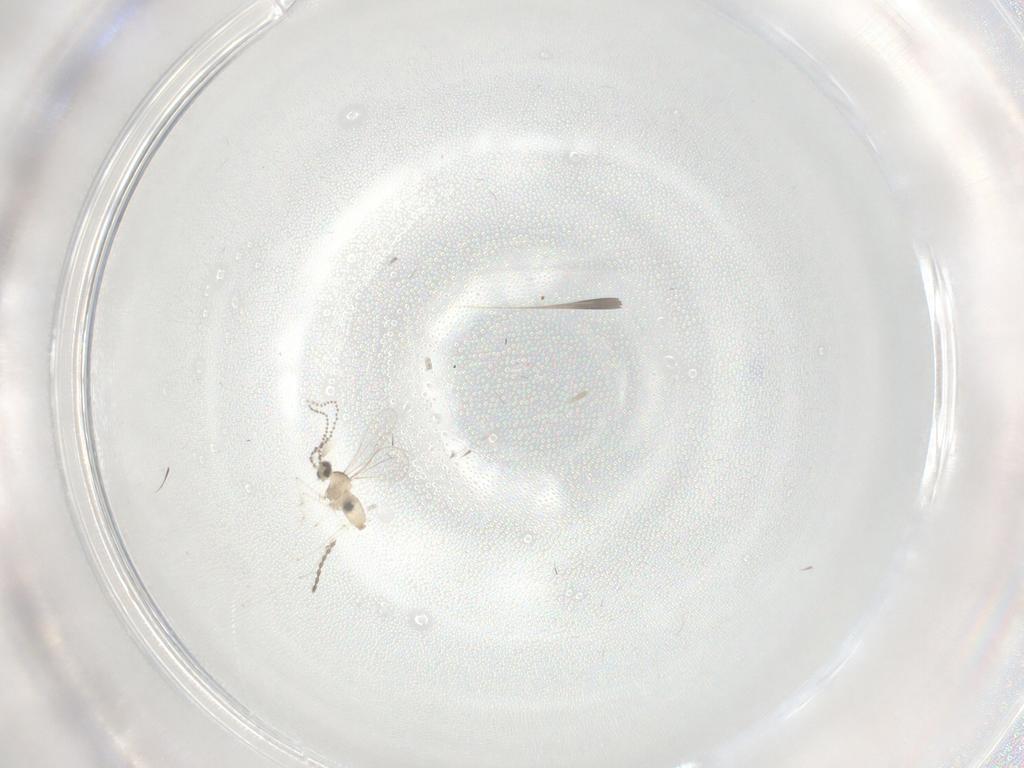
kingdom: Animalia
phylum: Arthropoda
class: Insecta
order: Diptera
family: Cecidomyiidae
